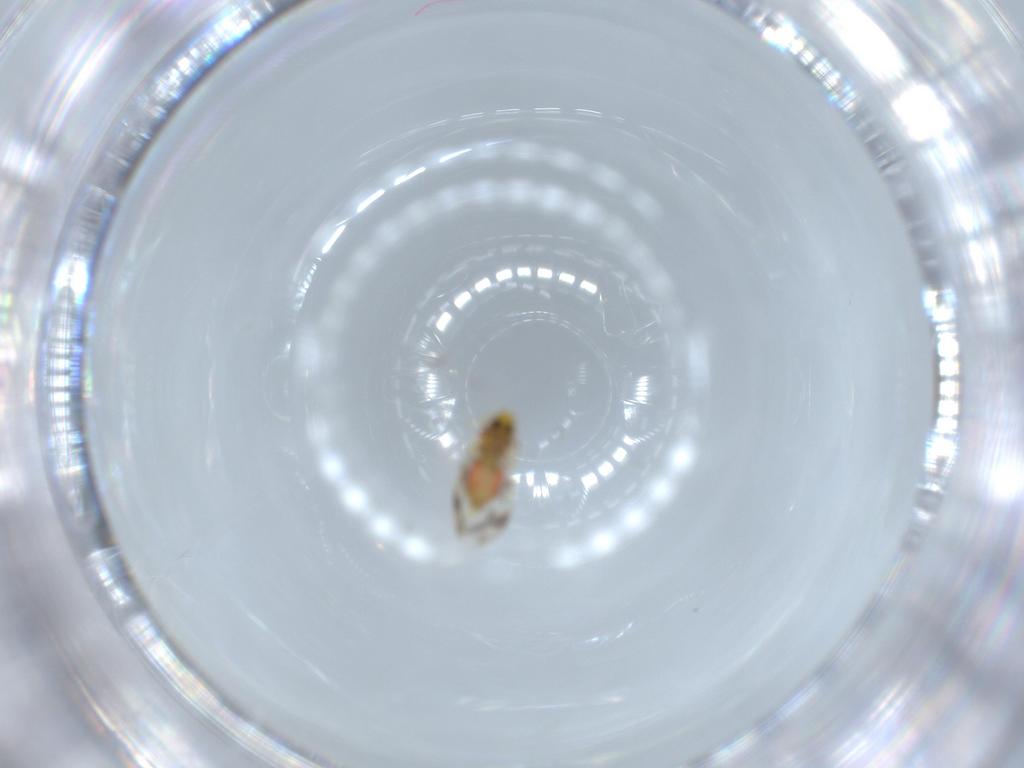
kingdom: Animalia
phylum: Arthropoda
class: Insecta
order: Hemiptera
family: Aleyrodidae
